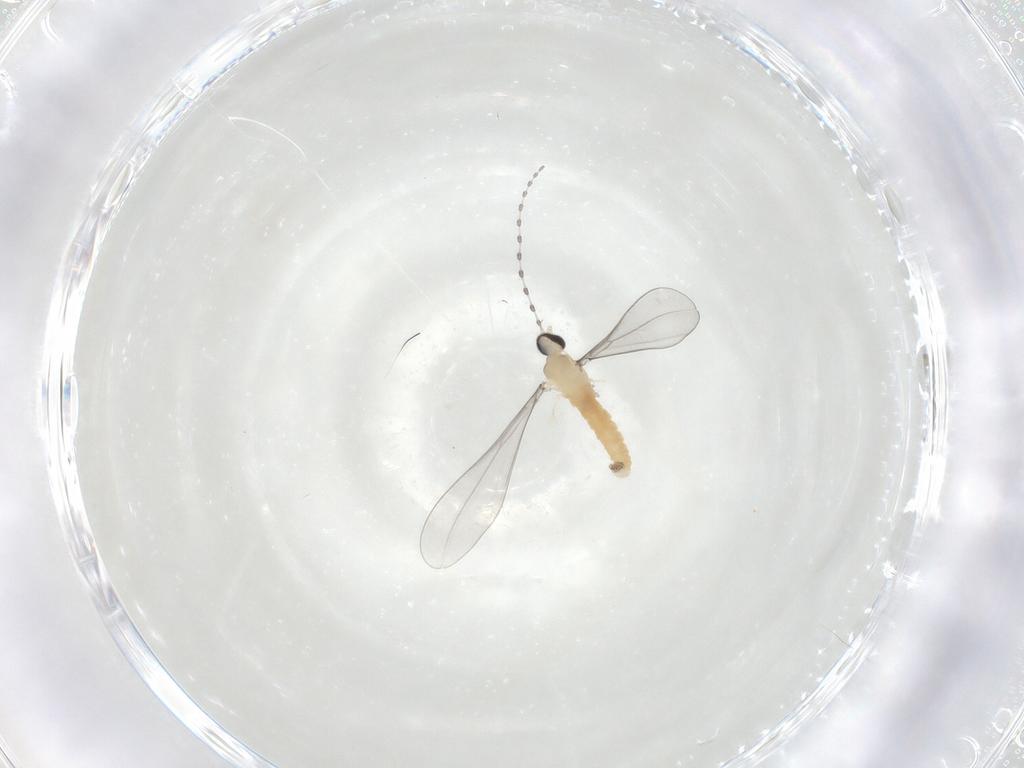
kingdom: Animalia
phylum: Arthropoda
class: Insecta
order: Diptera
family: Cecidomyiidae
